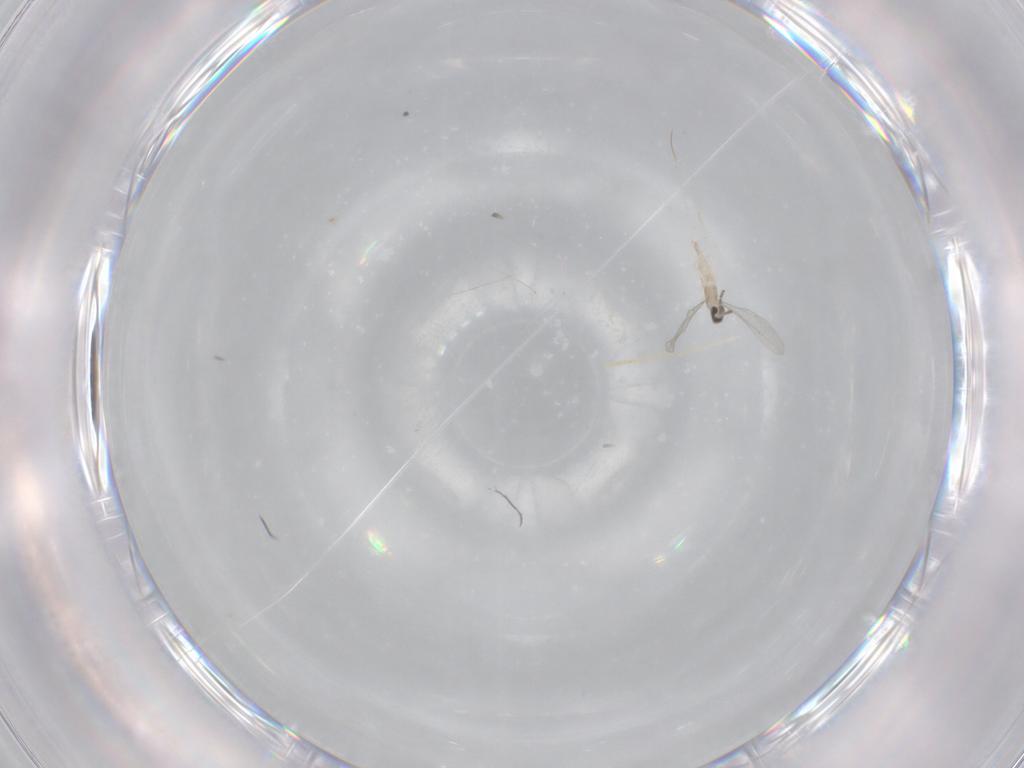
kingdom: Animalia
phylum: Arthropoda
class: Insecta
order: Diptera
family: Cecidomyiidae
